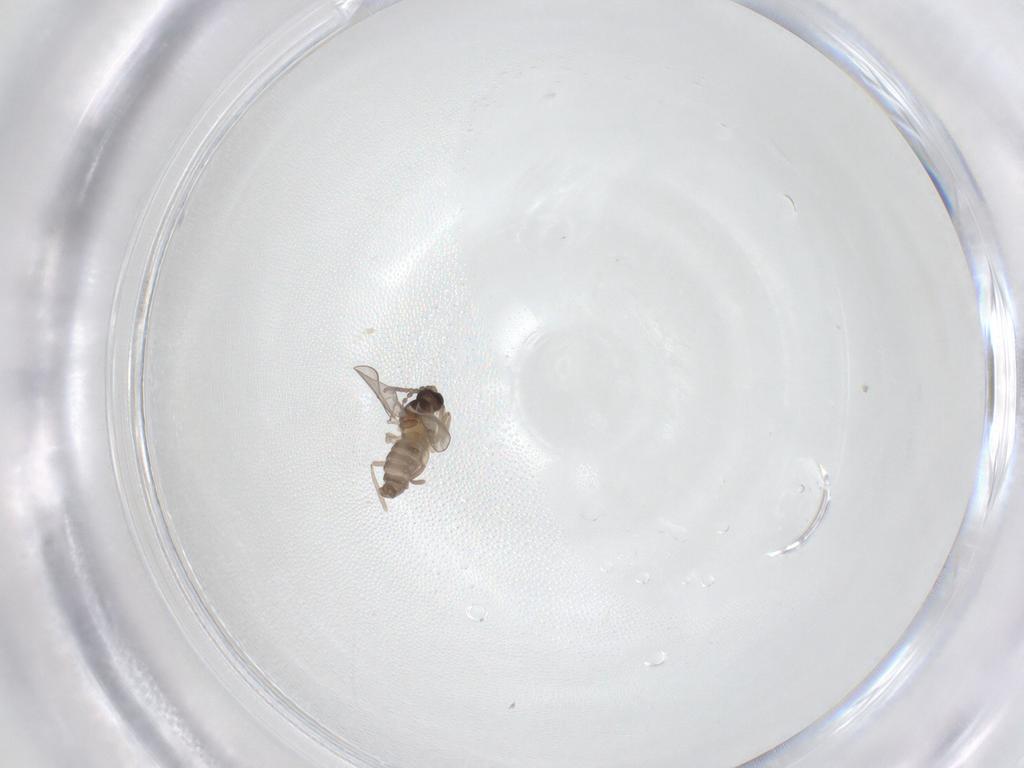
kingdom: Animalia
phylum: Arthropoda
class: Insecta
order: Diptera
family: Cecidomyiidae
